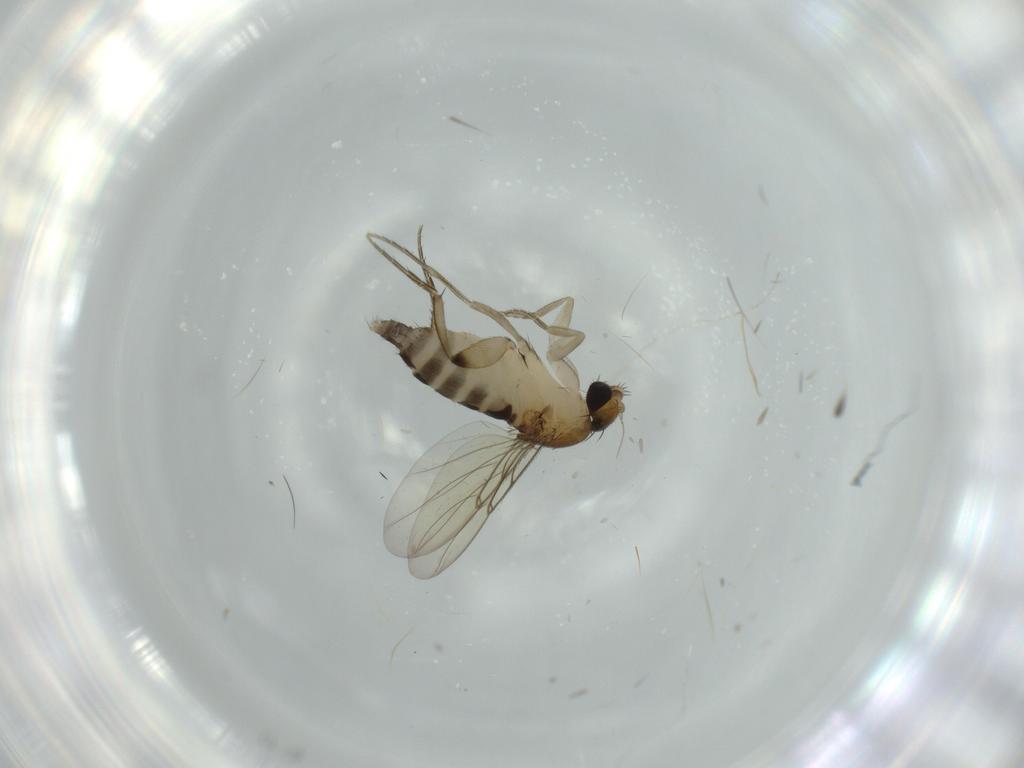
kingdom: Animalia
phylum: Arthropoda
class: Insecta
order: Diptera
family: Phoridae
